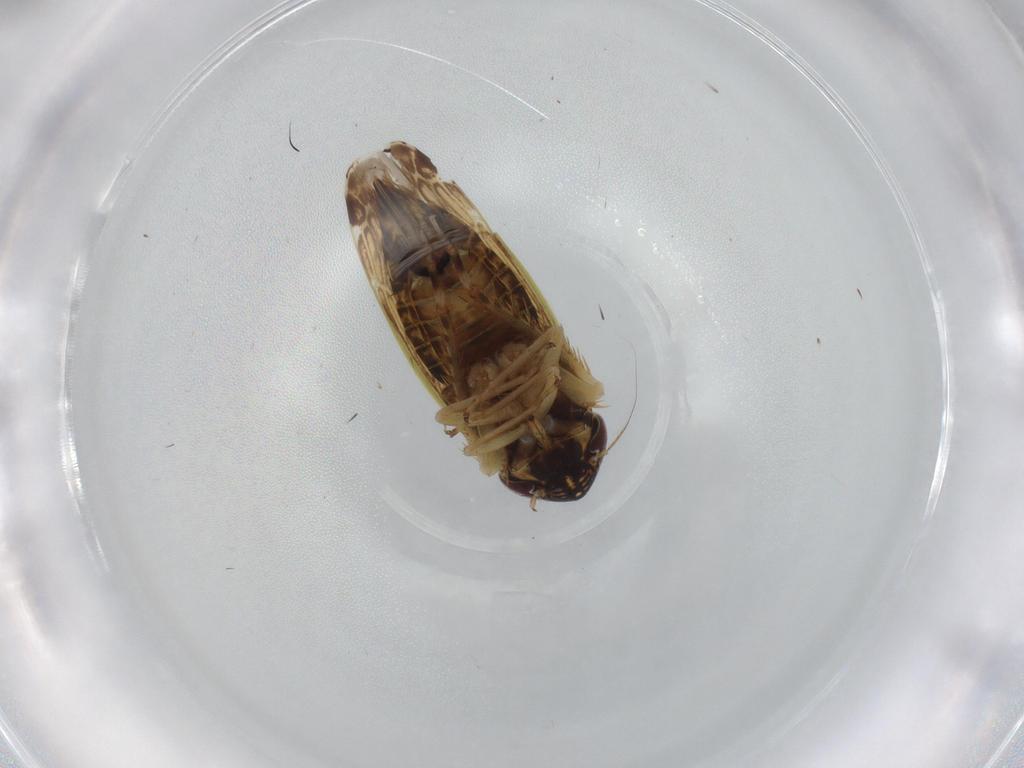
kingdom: Animalia
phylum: Arthropoda
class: Insecta
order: Hemiptera
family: Cicadellidae
